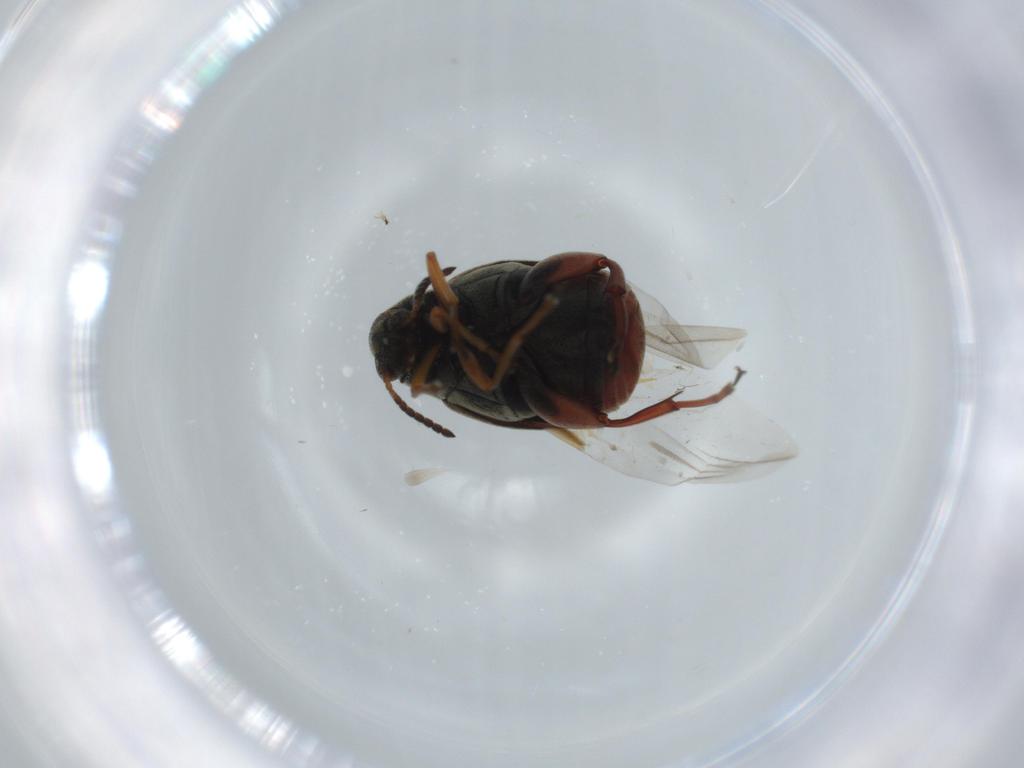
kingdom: Animalia
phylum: Arthropoda
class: Insecta
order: Coleoptera
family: Chrysomelidae
